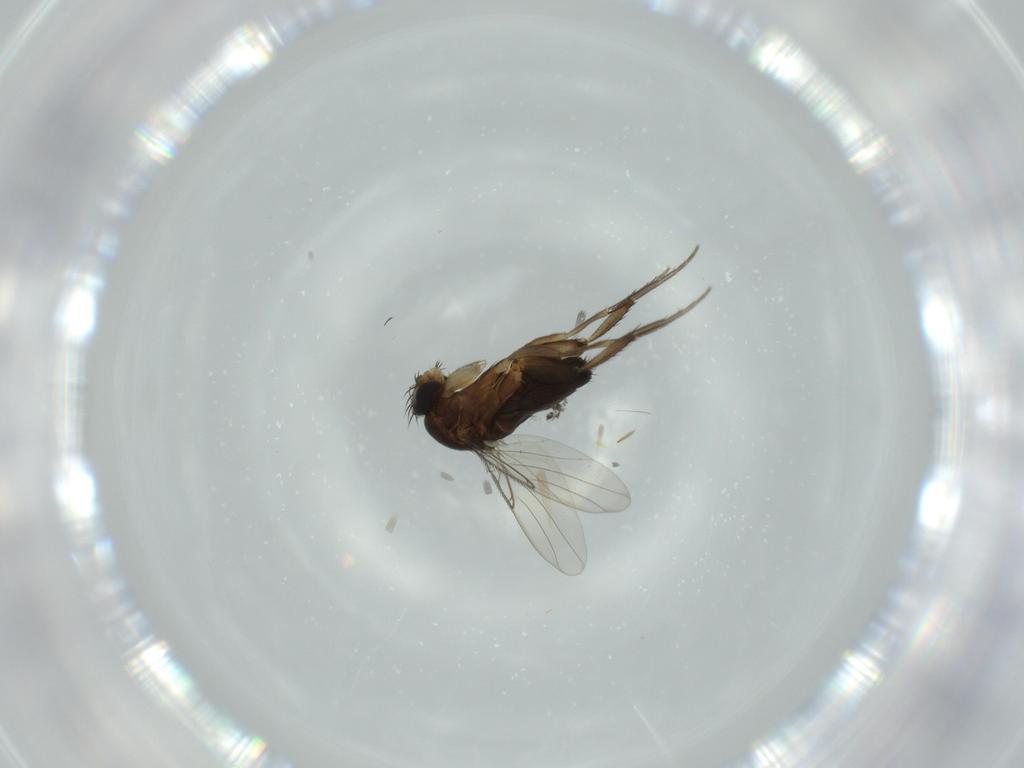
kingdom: Animalia
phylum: Arthropoda
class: Insecta
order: Diptera
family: Phoridae
